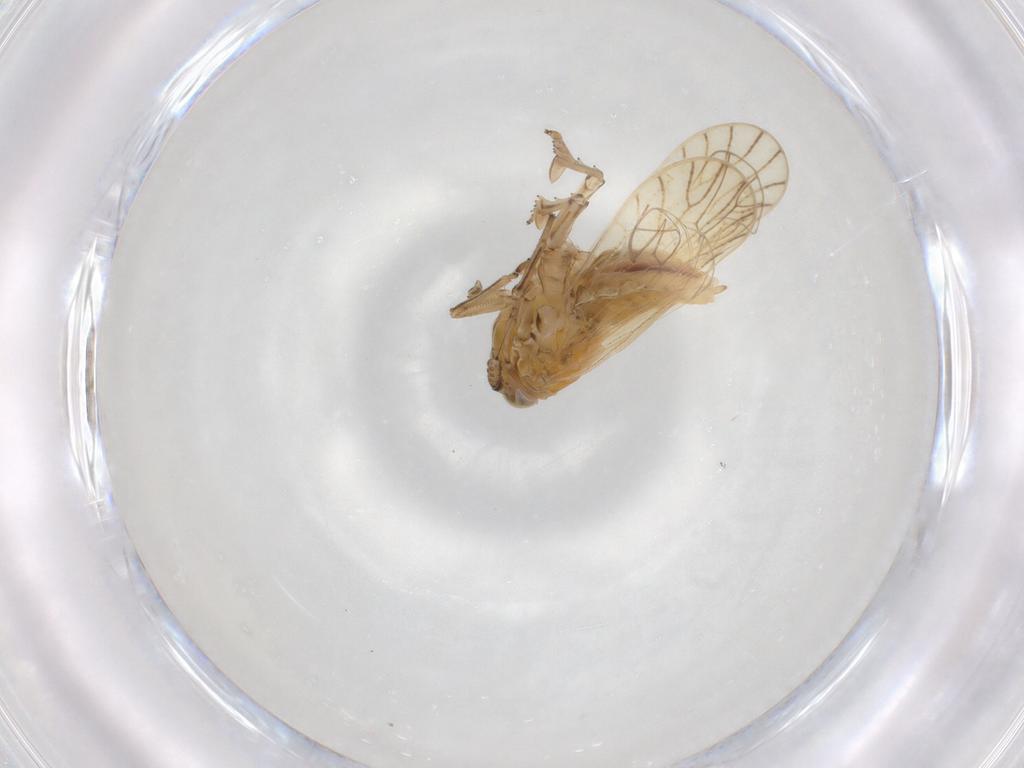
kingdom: Animalia
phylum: Arthropoda
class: Insecta
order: Hemiptera
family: Delphacidae
